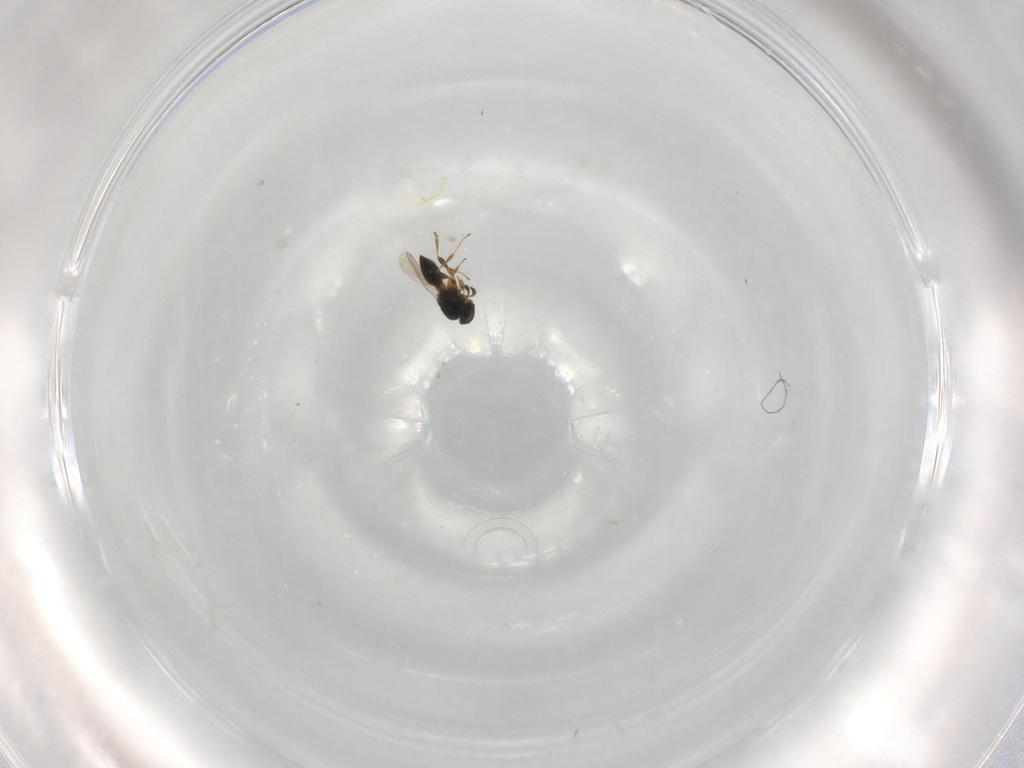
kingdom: Animalia
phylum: Arthropoda
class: Insecta
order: Hymenoptera
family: Platygastridae
